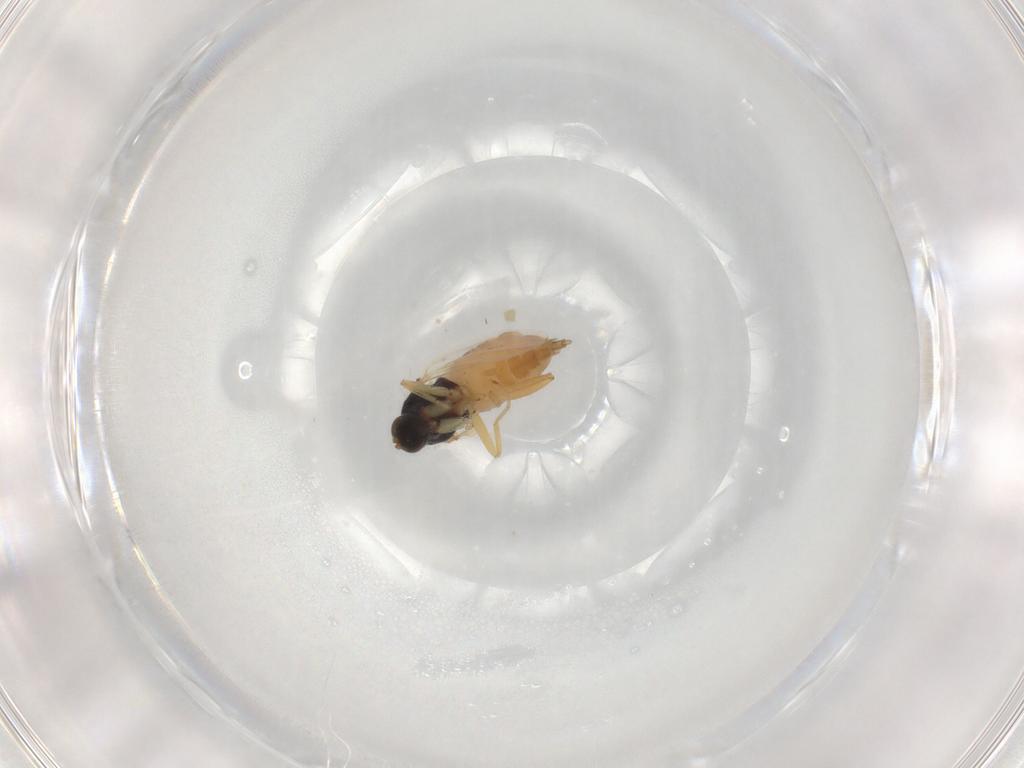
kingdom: Animalia
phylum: Arthropoda
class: Insecta
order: Diptera
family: Hybotidae
